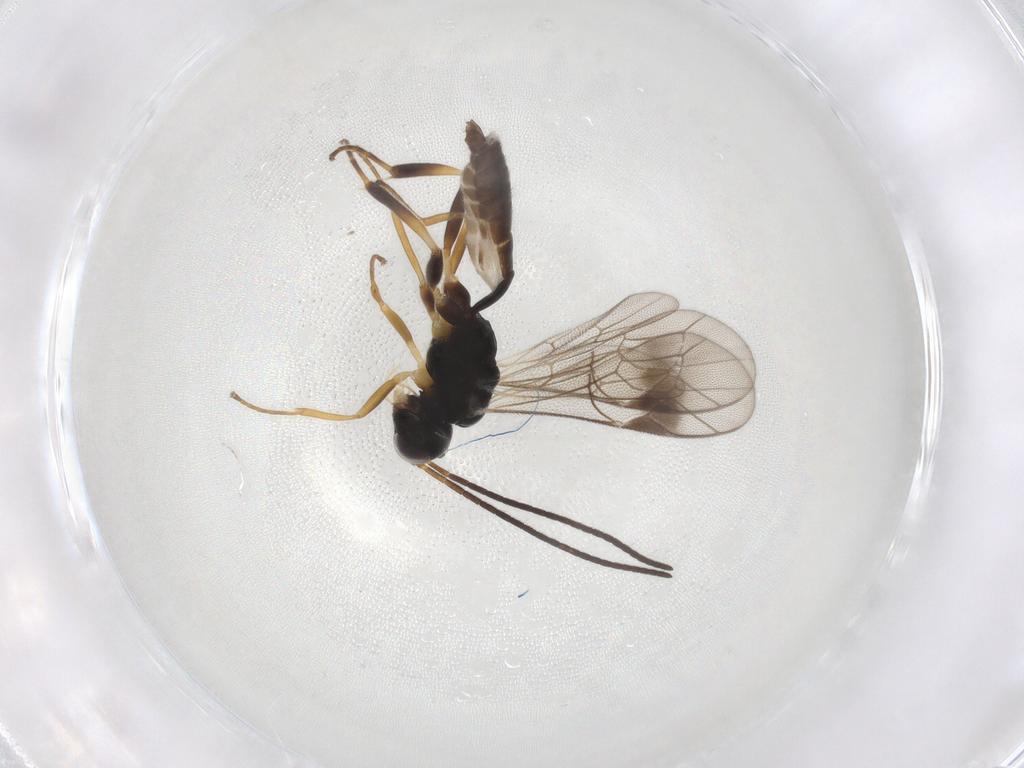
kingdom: Animalia
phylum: Arthropoda
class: Insecta
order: Hymenoptera
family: Ichneumonidae
